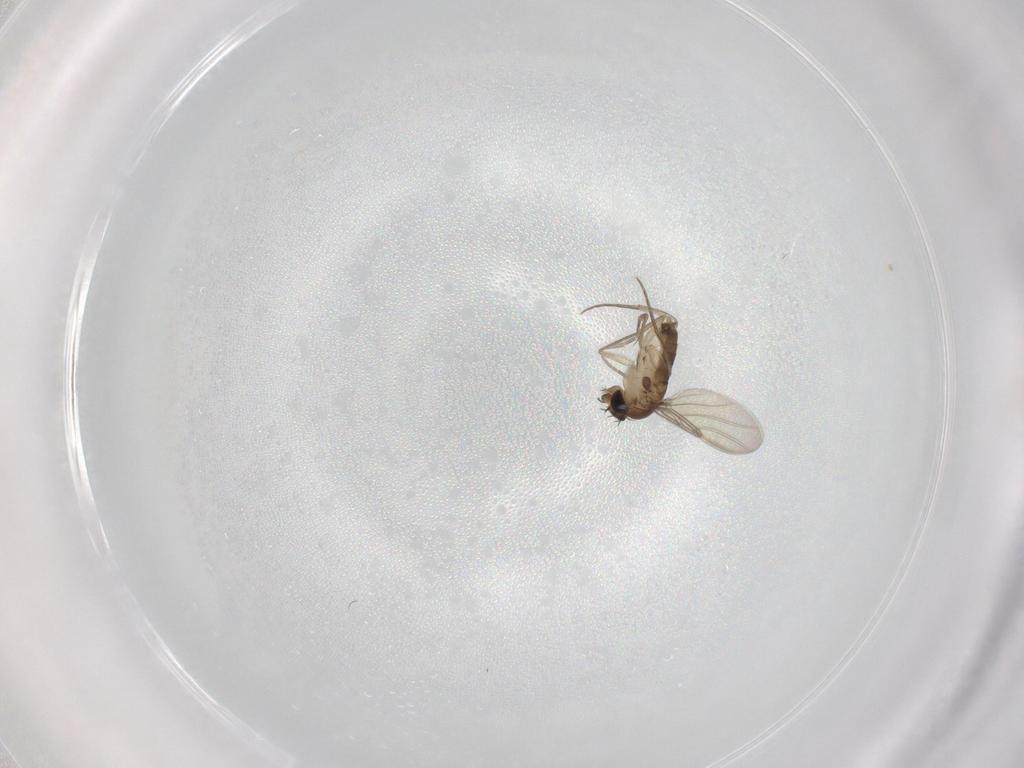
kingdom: Animalia
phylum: Arthropoda
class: Insecta
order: Diptera
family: Phoridae
